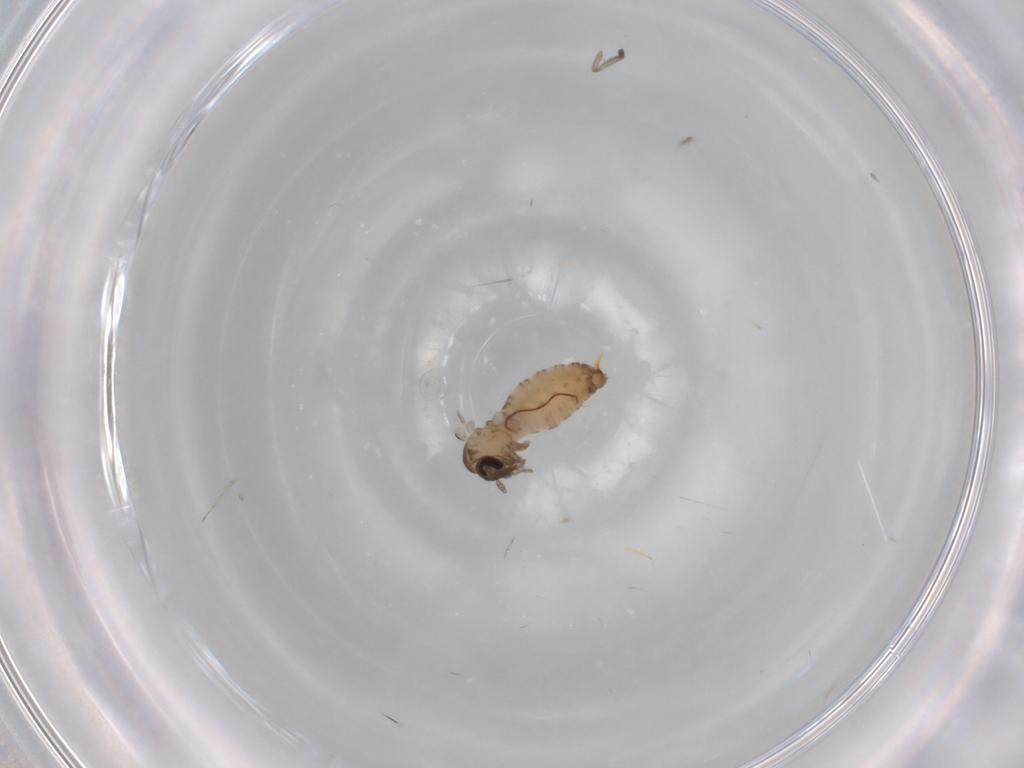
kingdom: Animalia
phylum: Arthropoda
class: Insecta
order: Diptera
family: Psychodidae
